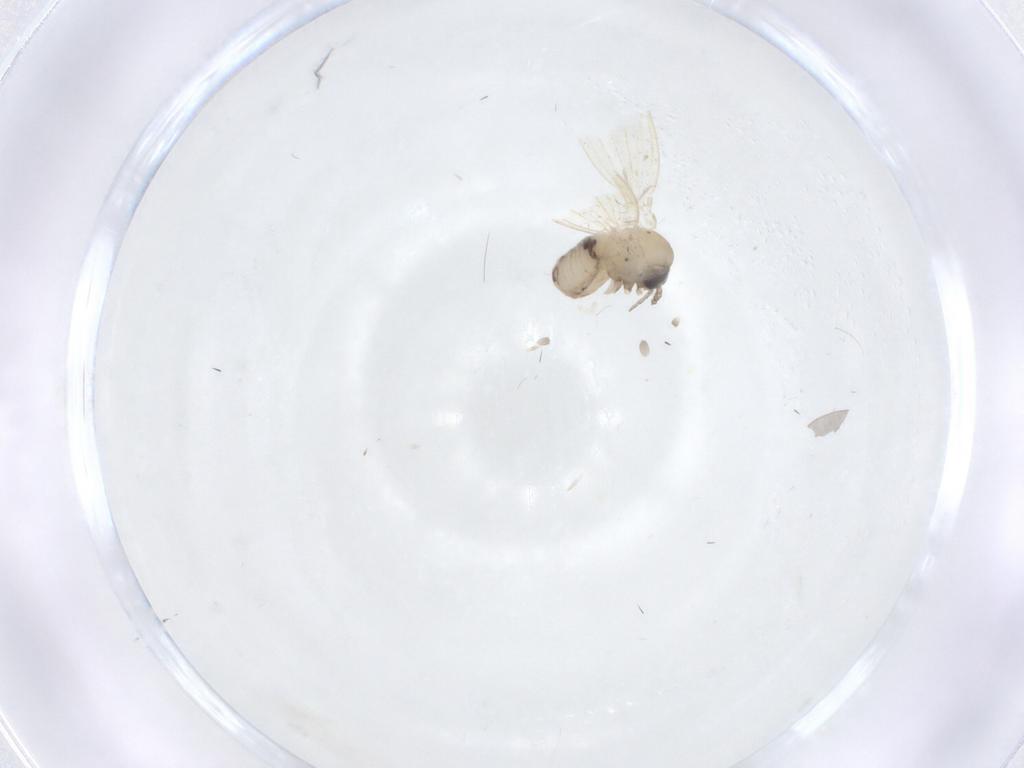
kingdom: Animalia
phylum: Arthropoda
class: Insecta
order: Diptera
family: Psychodidae
